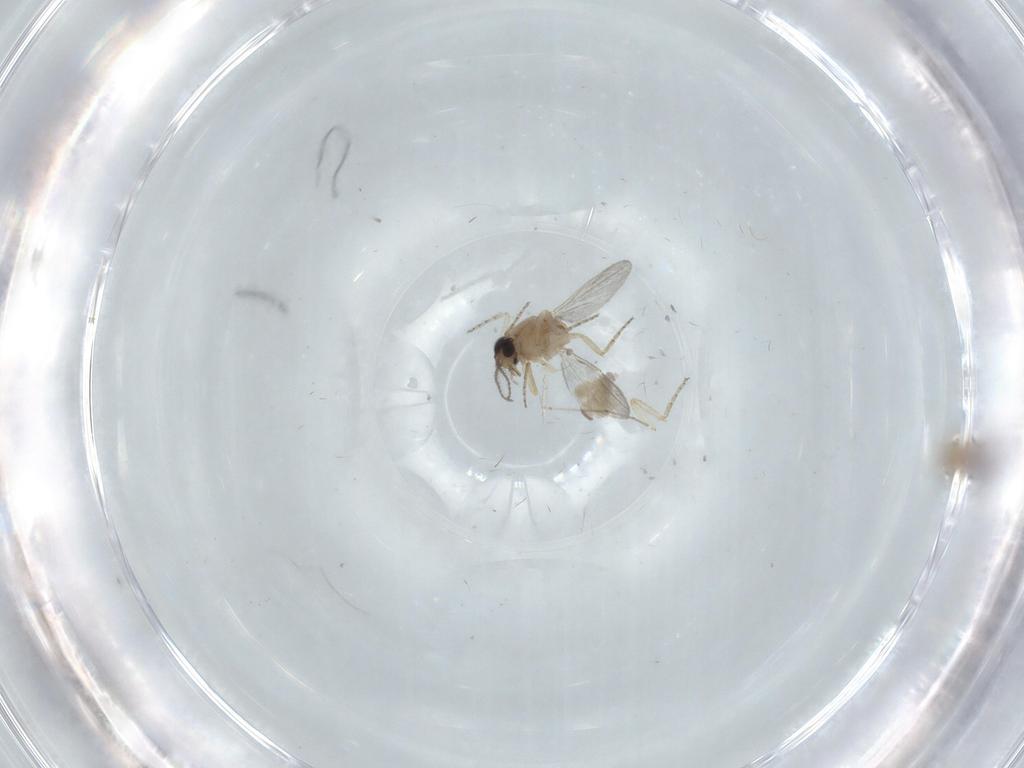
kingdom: Animalia
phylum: Arthropoda
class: Insecta
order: Diptera
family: Ceratopogonidae
